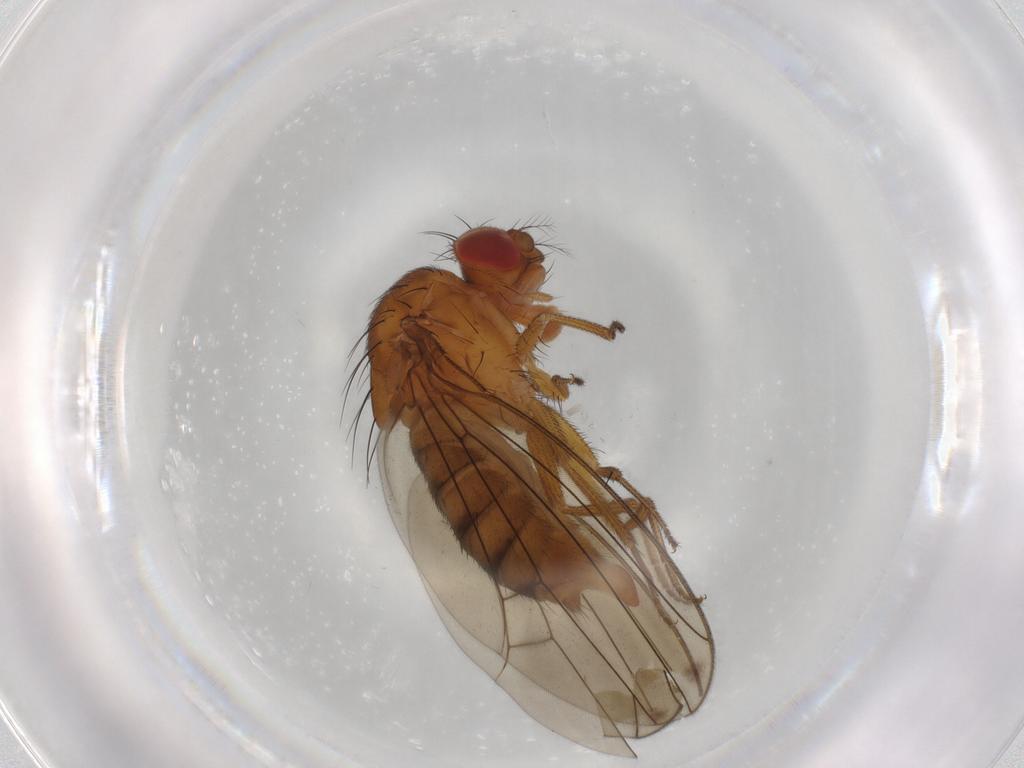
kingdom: Animalia
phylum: Arthropoda
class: Insecta
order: Diptera
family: Drosophilidae
